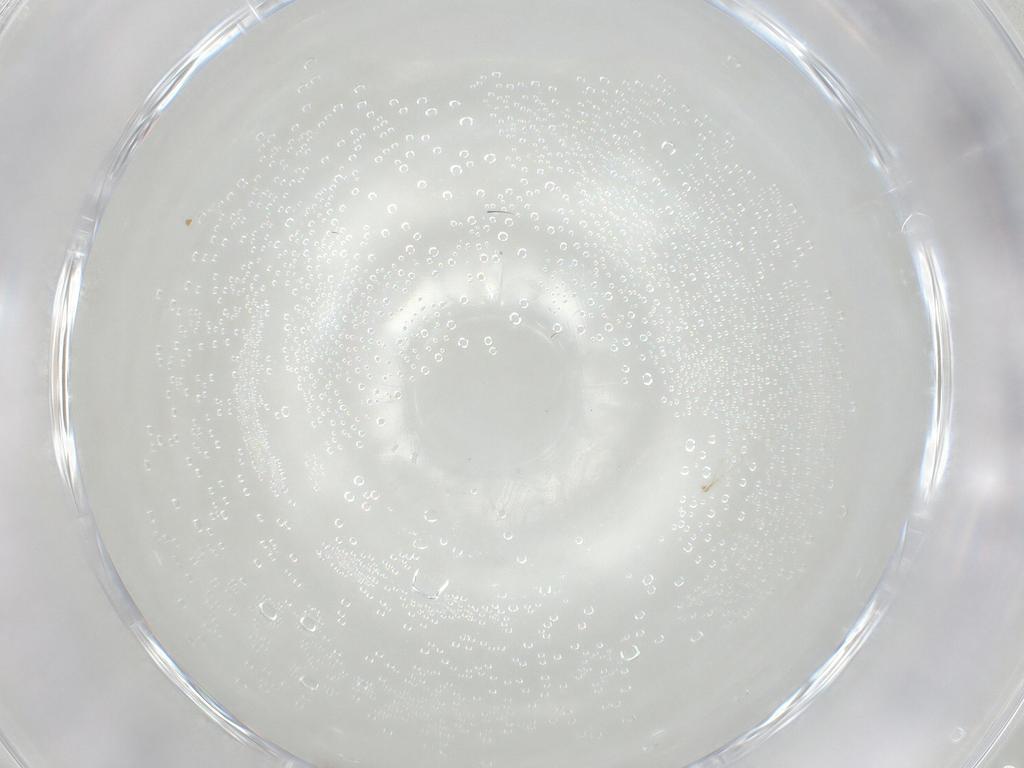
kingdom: Animalia
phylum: Arthropoda
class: Insecta
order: Diptera
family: Cecidomyiidae
